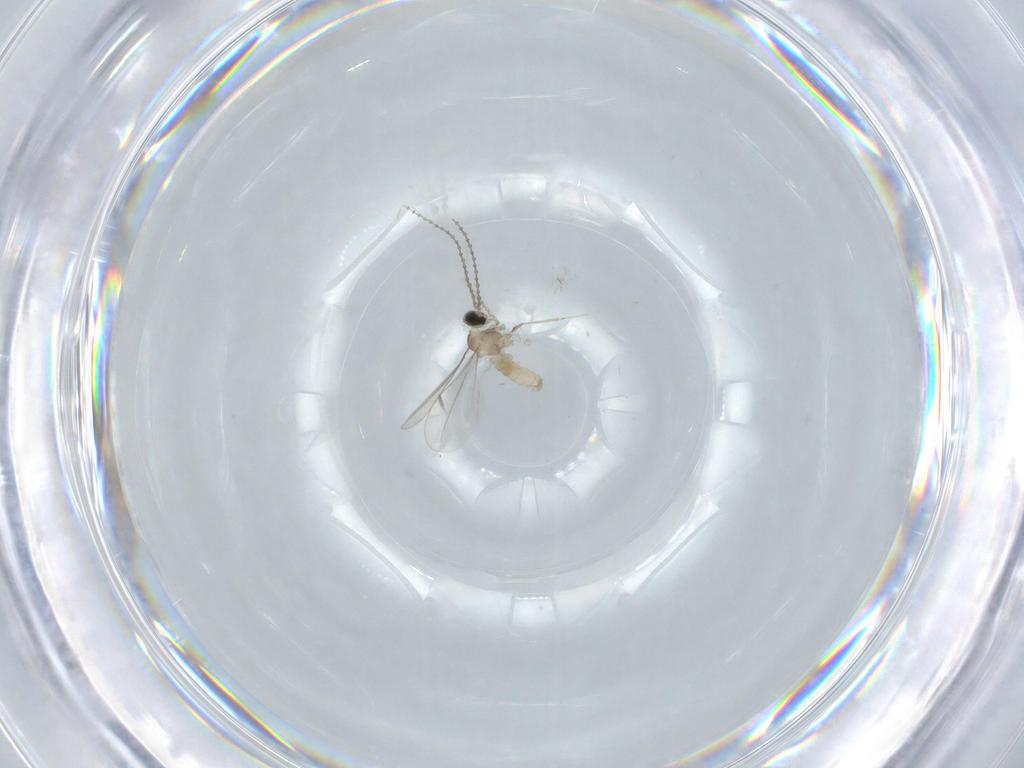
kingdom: Animalia
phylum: Arthropoda
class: Insecta
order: Diptera
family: Cecidomyiidae
